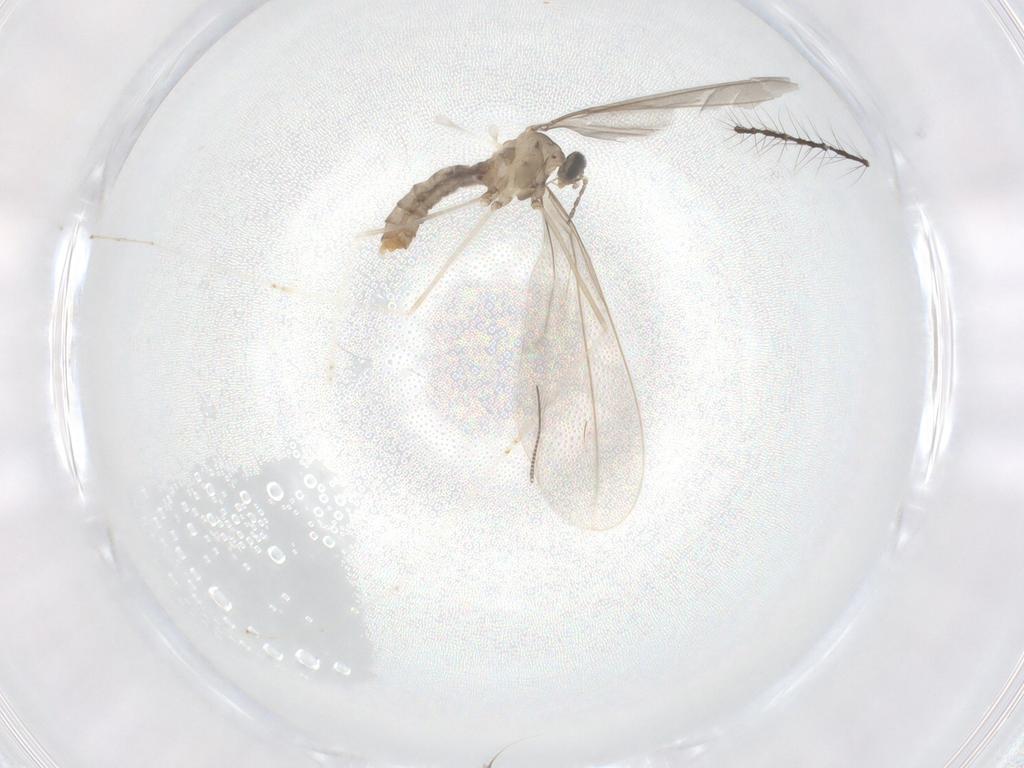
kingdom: Animalia
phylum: Arthropoda
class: Insecta
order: Diptera
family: Cecidomyiidae
